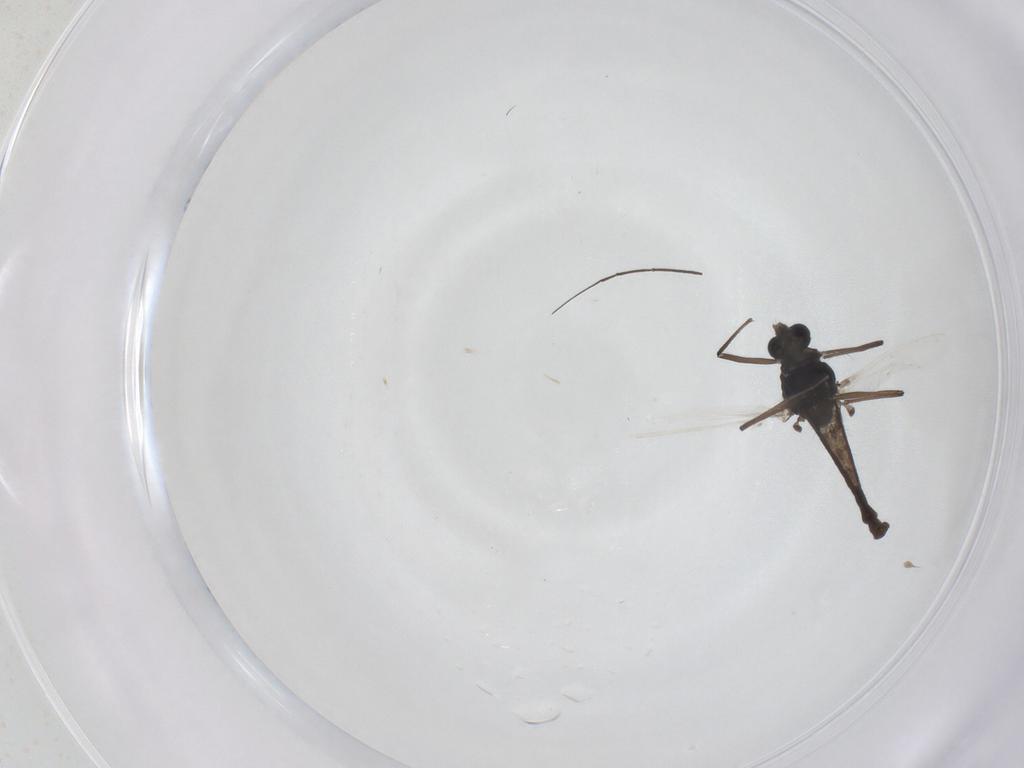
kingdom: Animalia
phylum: Arthropoda
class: Insecta
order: Diptera
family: Chironomidae
